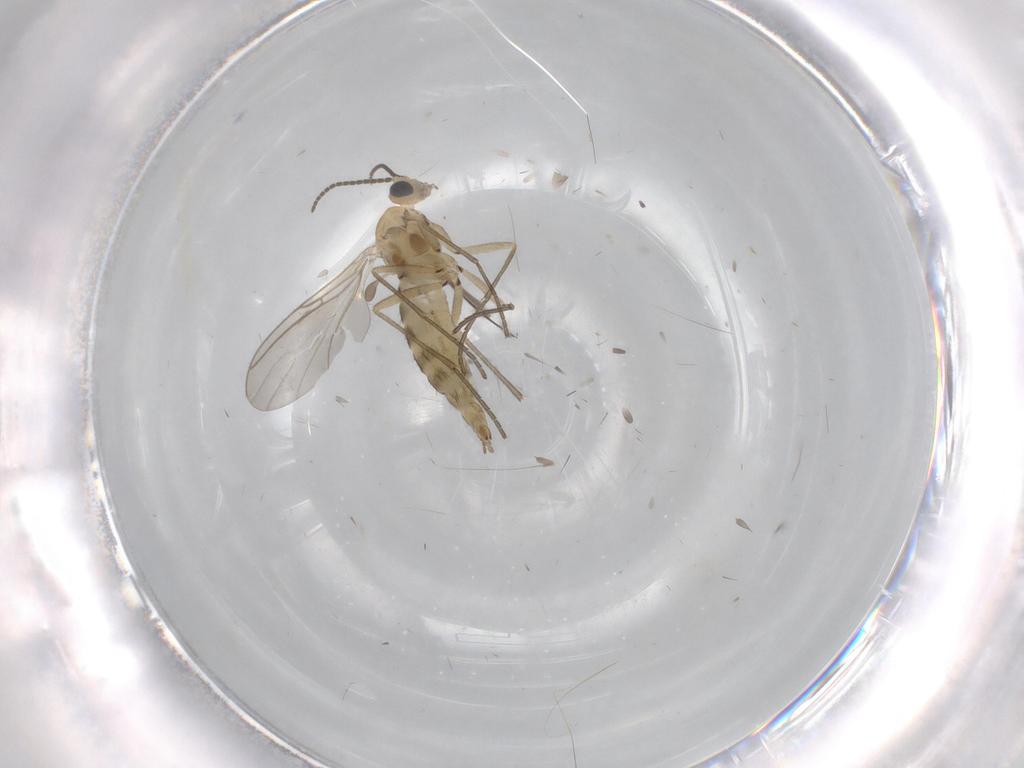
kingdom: Animalia
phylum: Arthropoda
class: Insecta
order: Diptera
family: Sciaridae
